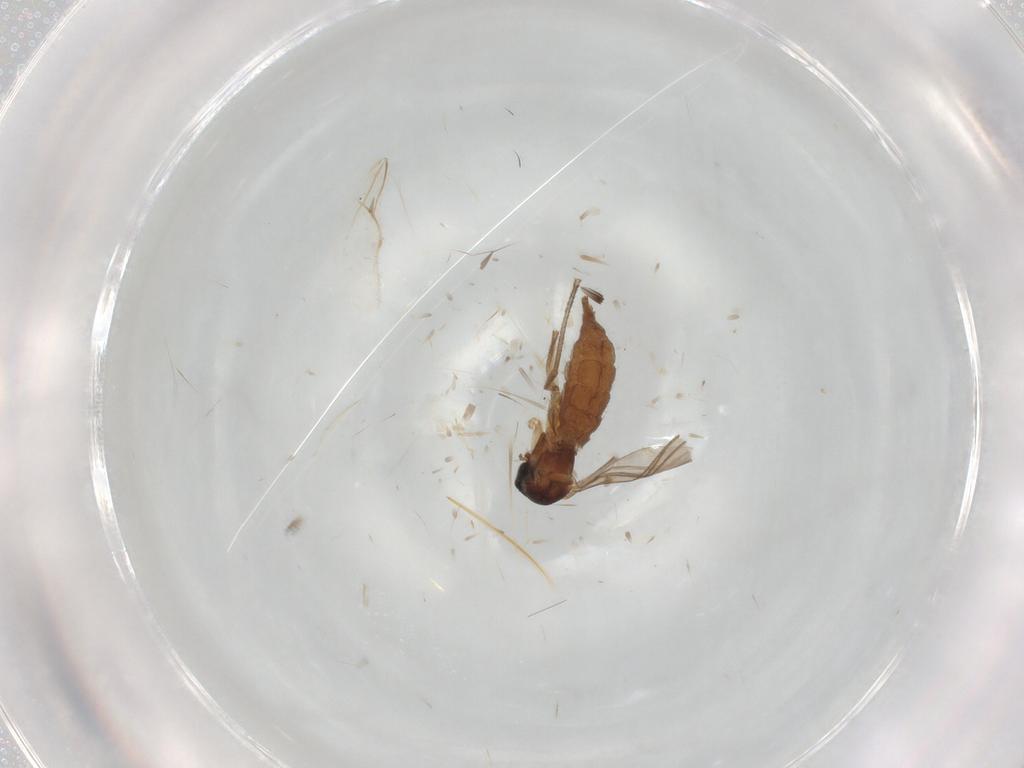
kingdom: Animalia
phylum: Arthropoda
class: Insecta
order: Diptera
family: Sciaridae
